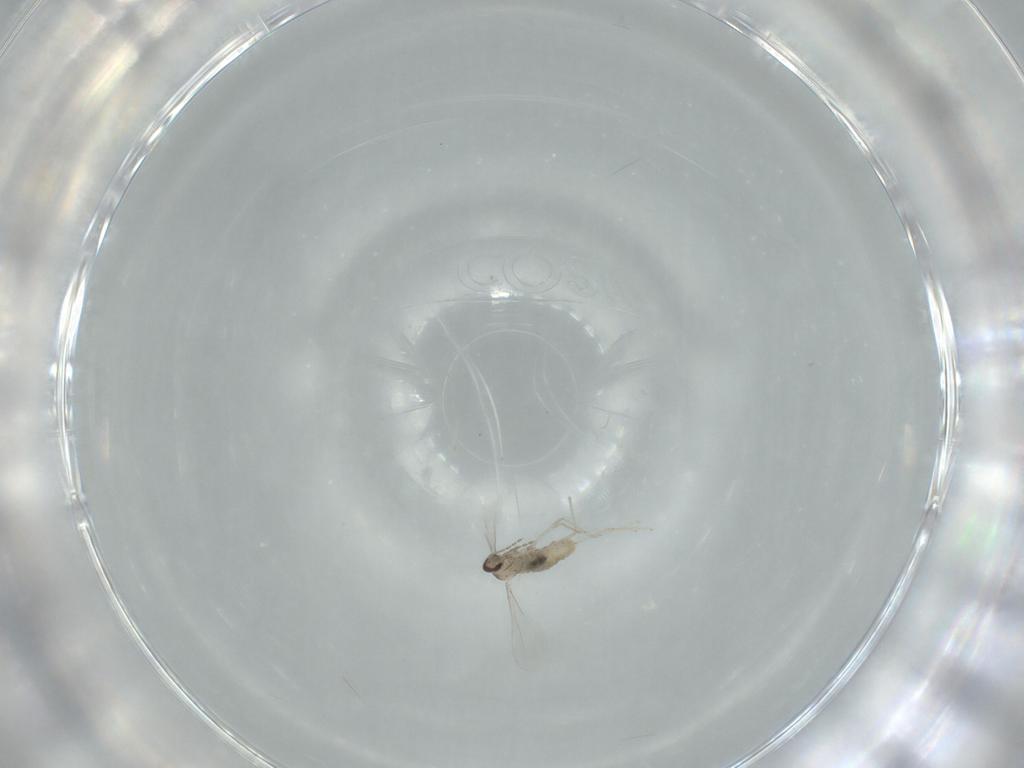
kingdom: Animalia
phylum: Arthropoda
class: Insecta
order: Diptera
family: Cecidomyiidae
